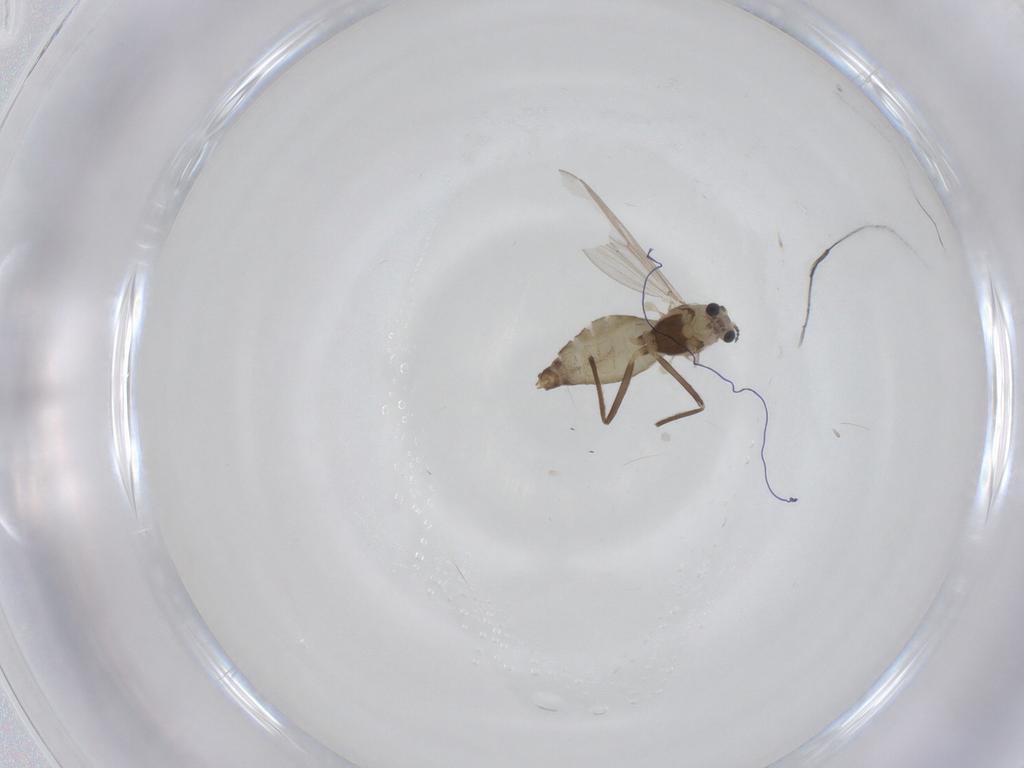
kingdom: Animalia
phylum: Arthropoda
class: Insecta
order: Diptera
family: Chironomidae
